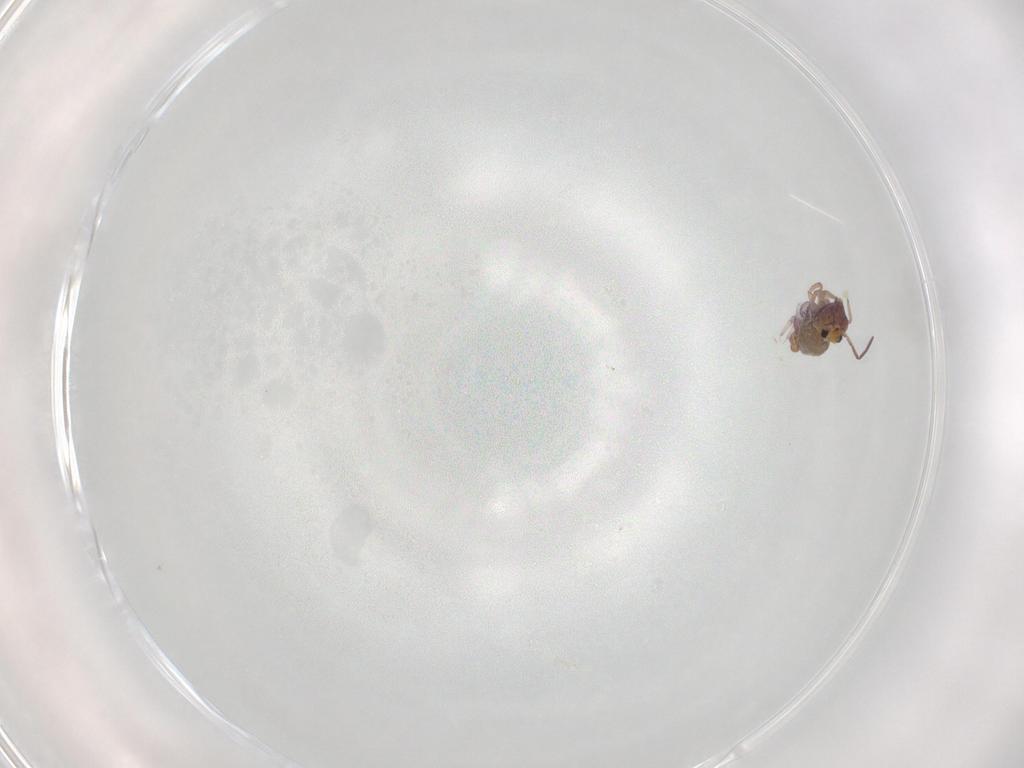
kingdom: Animalia
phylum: Arthropoda
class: Collembola
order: Symphypleona
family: Bourletiellidae
